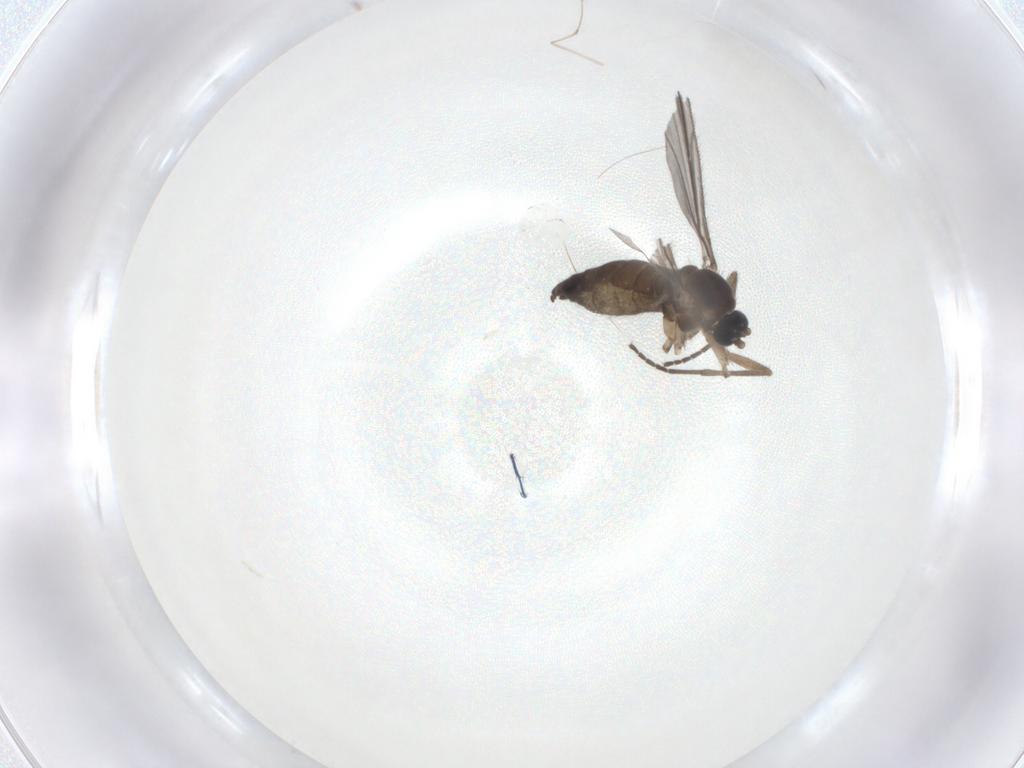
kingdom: Animalia
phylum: Arthropoda
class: Insecta
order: Diptera
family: Sciaridae
